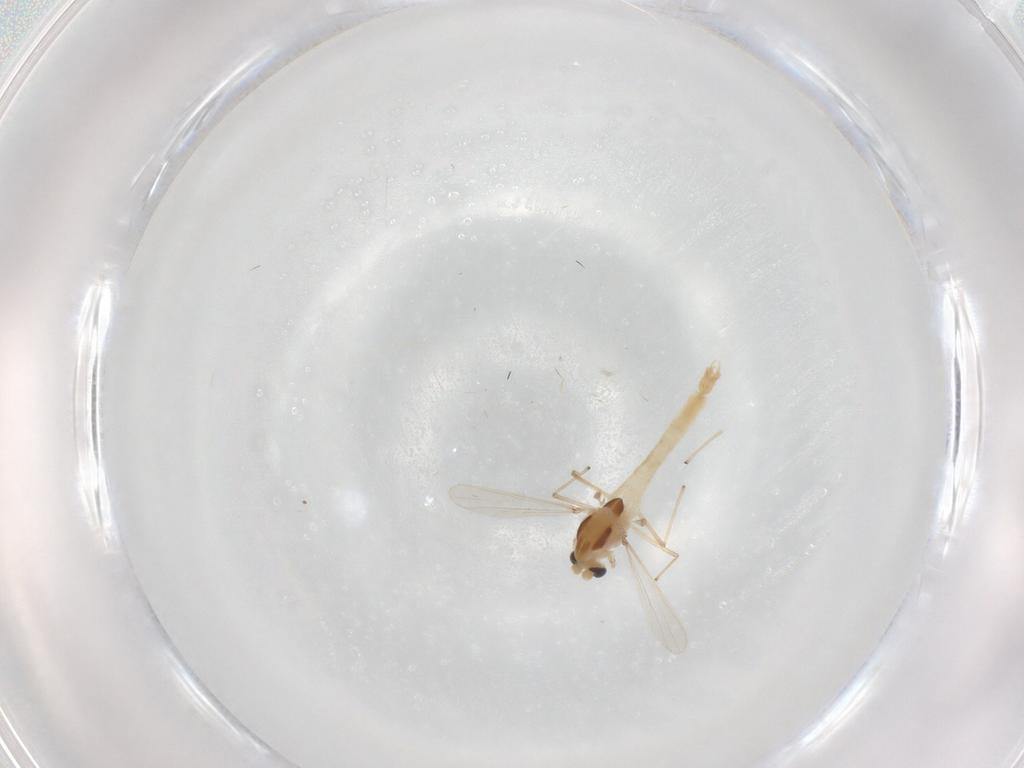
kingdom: Animalia
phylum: Arthropoda
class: Insecta
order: Diptera
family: Chironomidae
